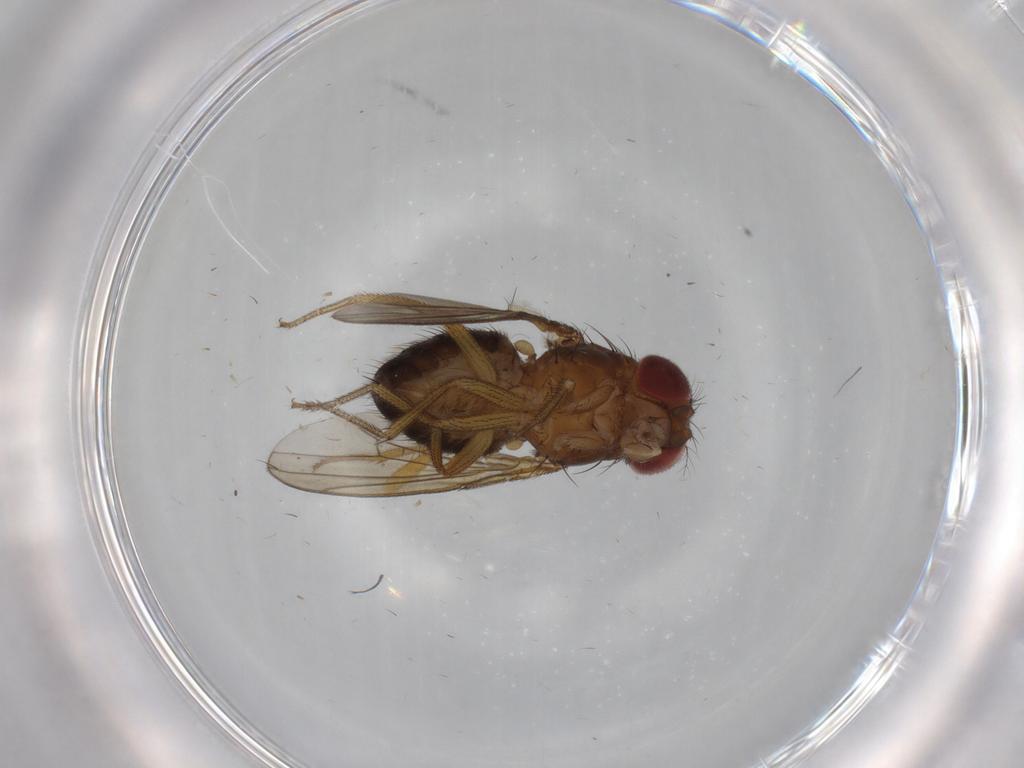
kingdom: Animalia
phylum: Arthropoda
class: Insecta
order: Diptera
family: Drosophilidae
